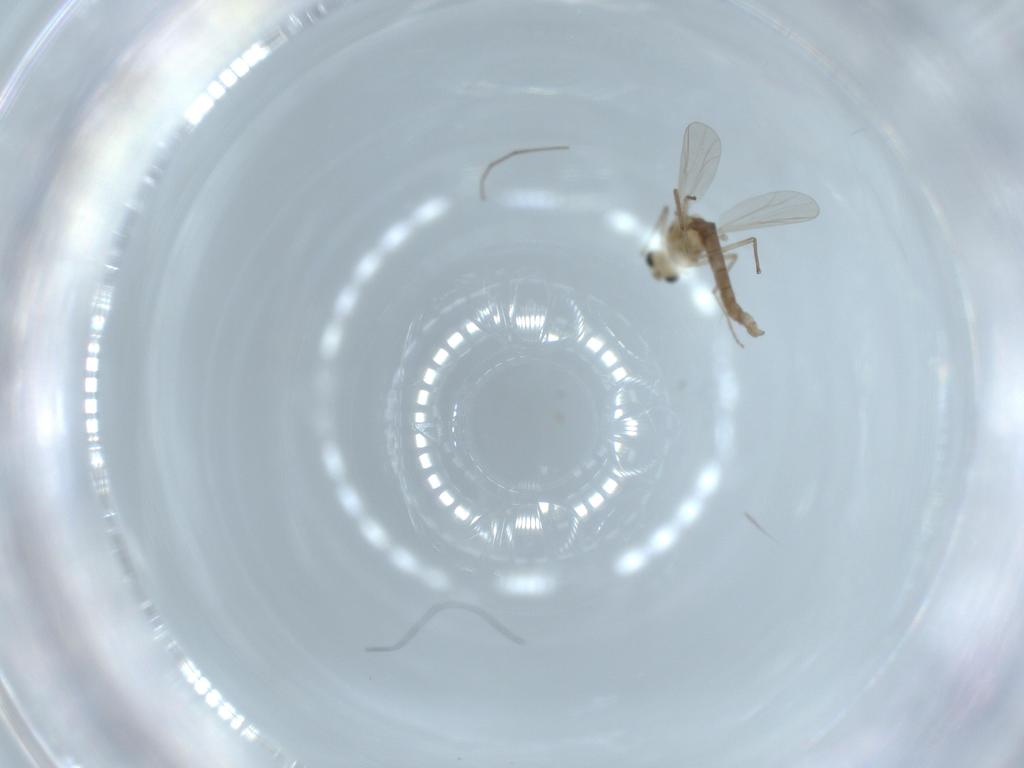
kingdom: Animalia
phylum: Arthropoda
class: Insecta
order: Diptera
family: Chironomidae
